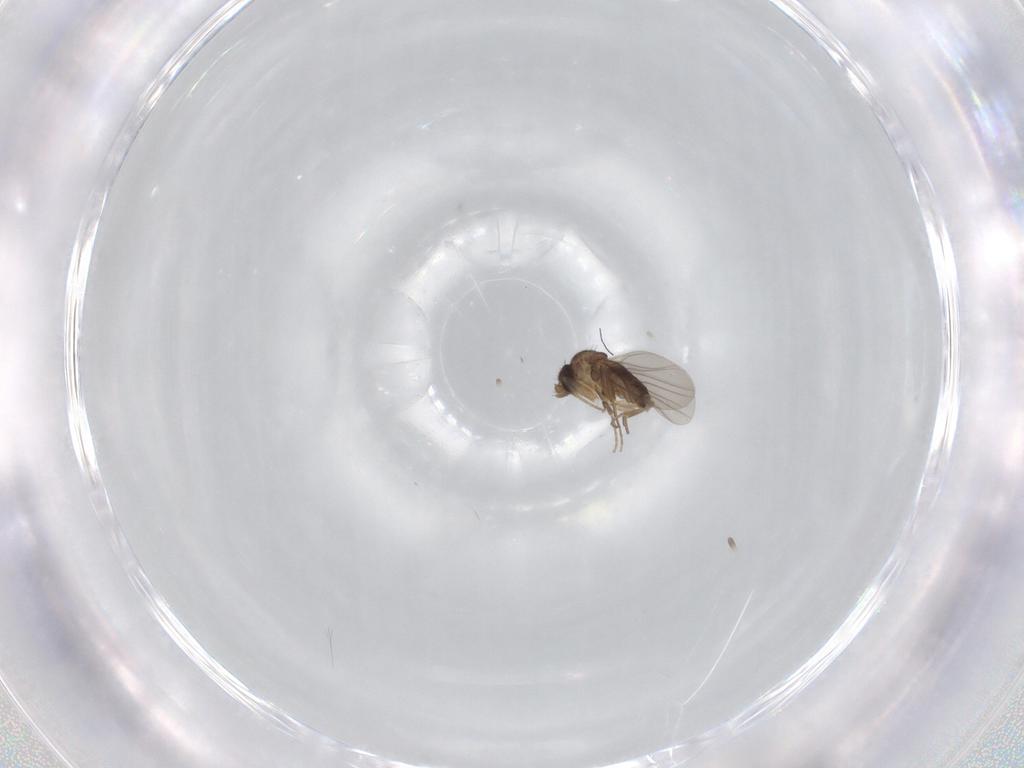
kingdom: Animalia
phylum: Arthropoda
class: Insecta
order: Diptera
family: Phoridae
